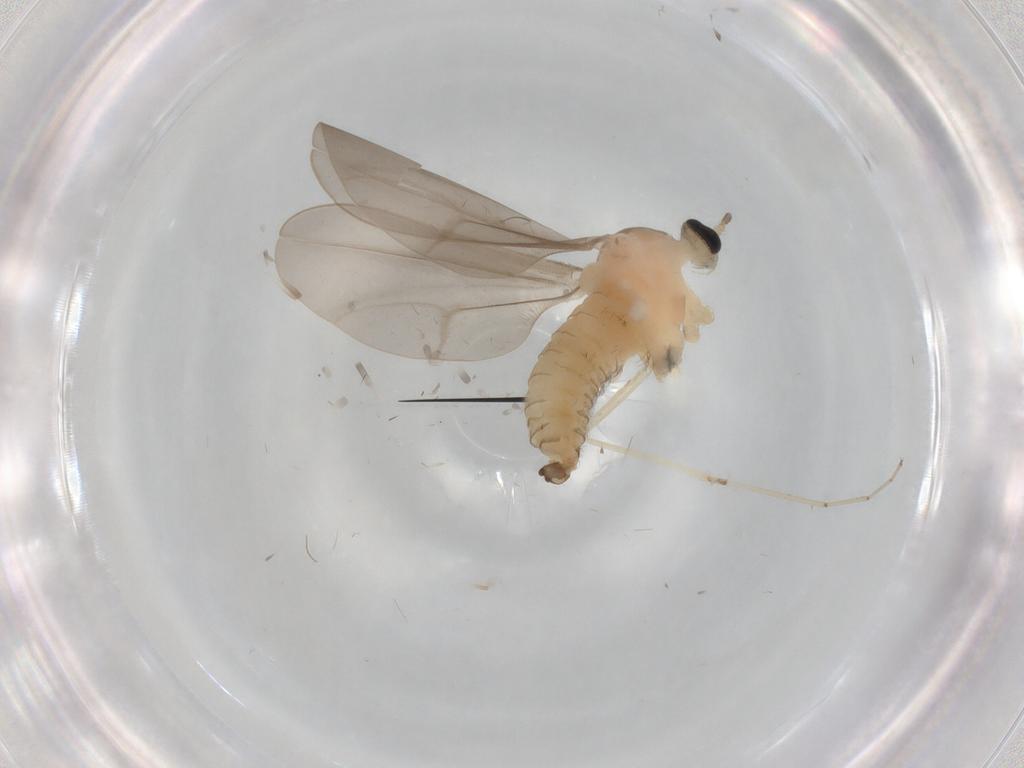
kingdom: Animalia
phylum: Arthropoda
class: Insecta
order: Diptera
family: Cecidomyiidae
